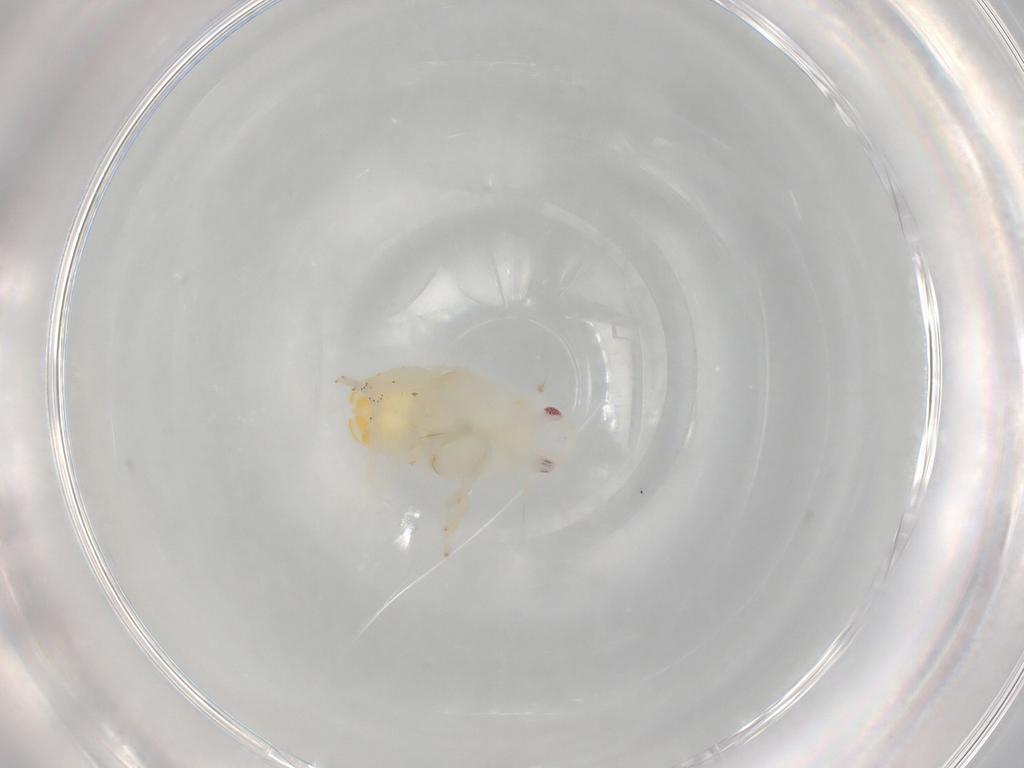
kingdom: Animalia
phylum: Arthropoda
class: Insecta
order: Hemiptera
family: Flatidae
